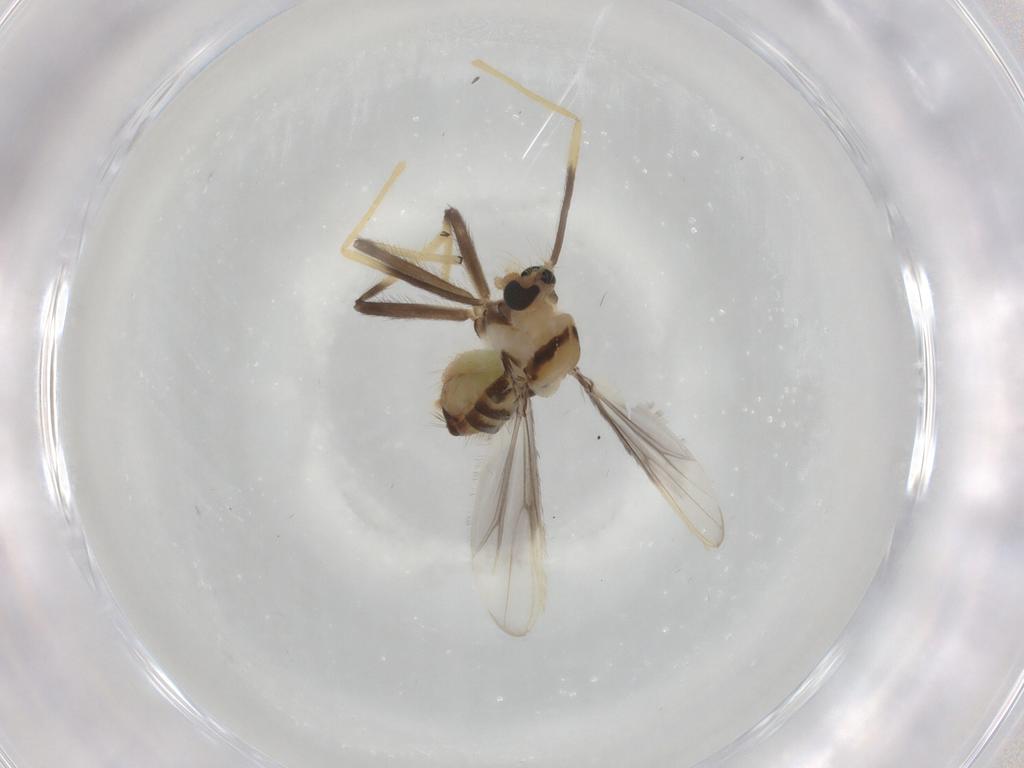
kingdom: Animalia
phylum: Arthropoda
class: Insecta
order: Diptera
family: Chironomidae
